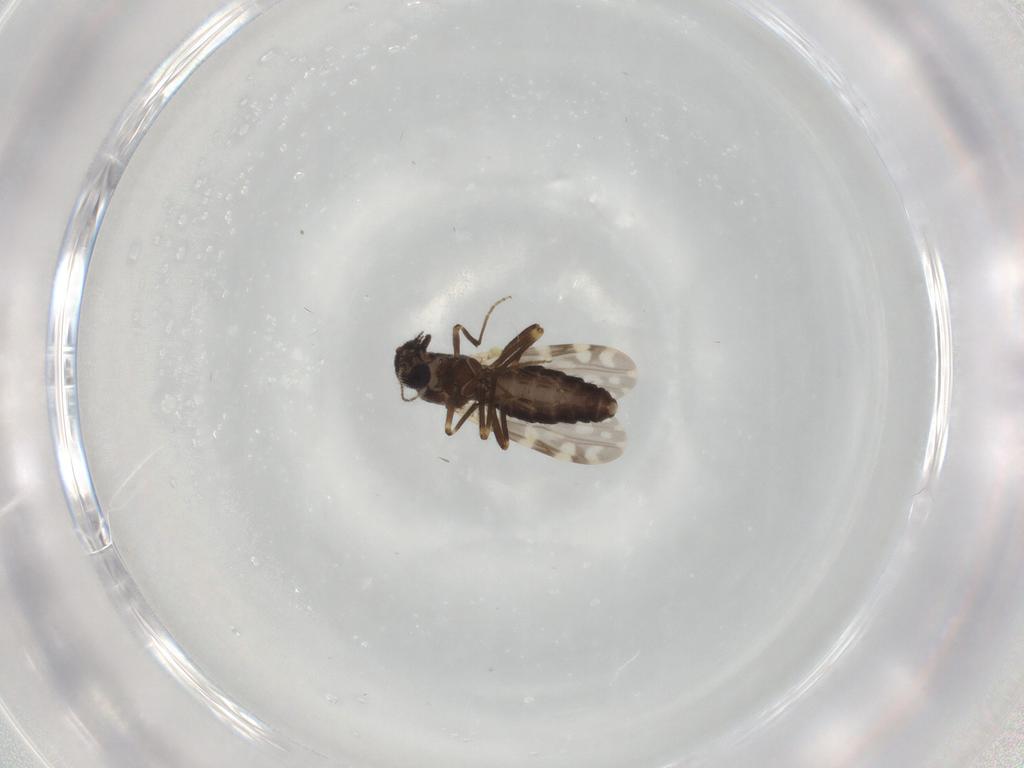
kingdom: Animalia
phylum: Arthropoda
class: Insecta
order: Diptera
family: Ceratopogonidae
